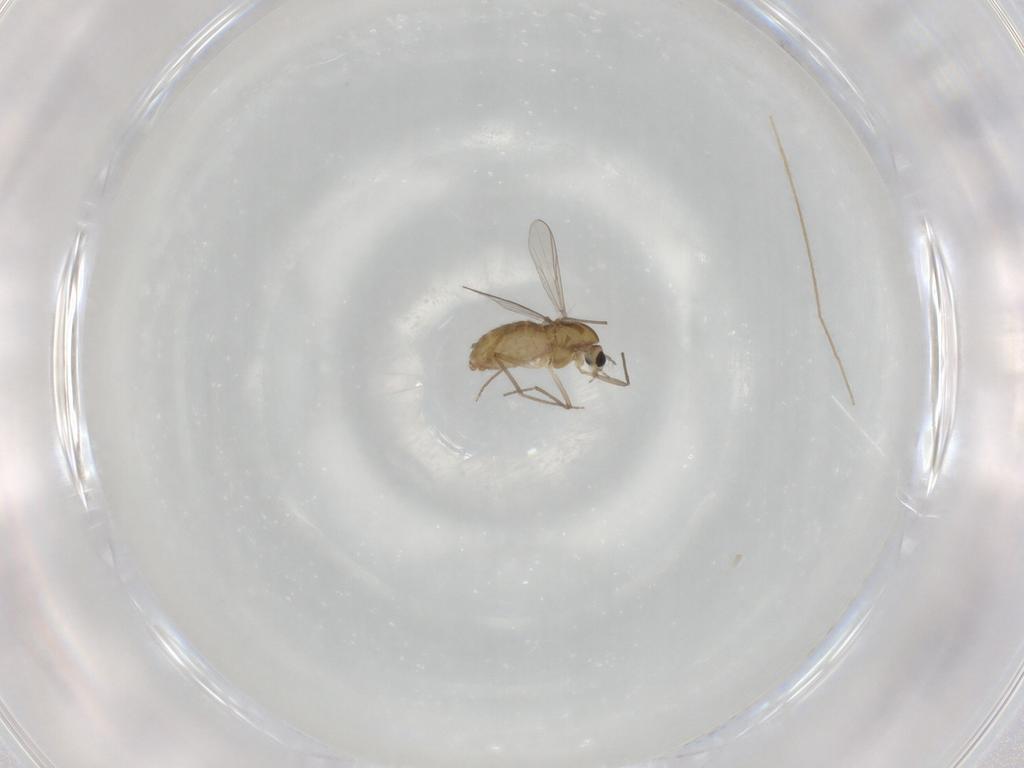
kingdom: Animalia
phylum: Arthropoda
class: Insecta
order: Diptera
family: Chironomidae
